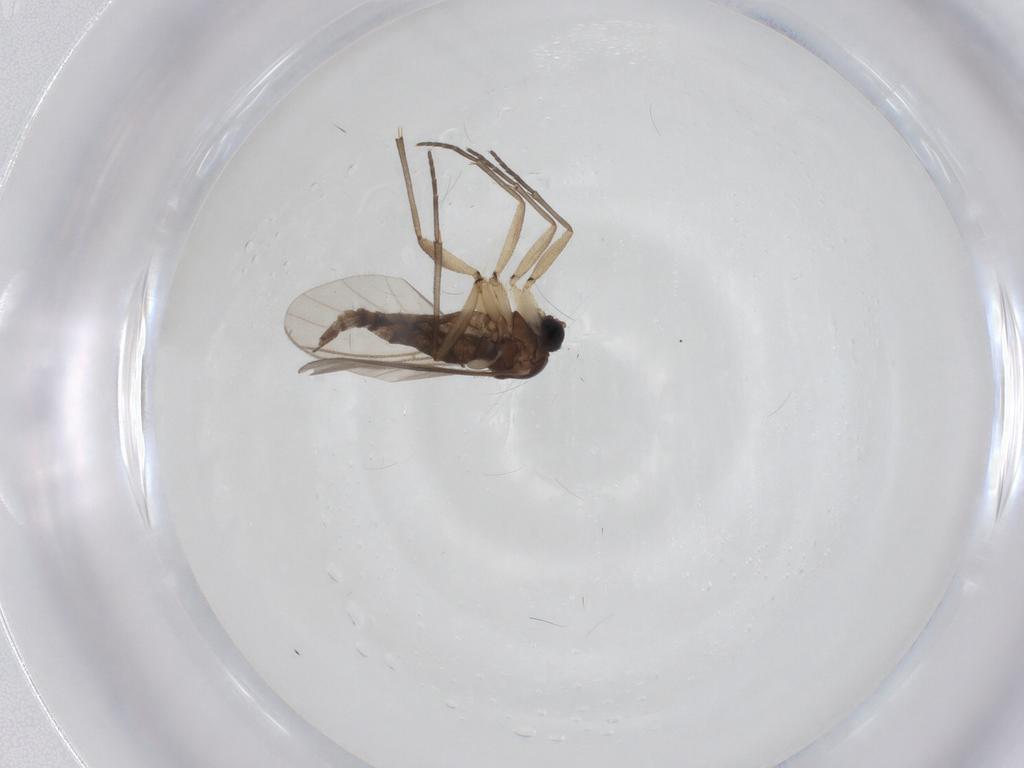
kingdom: Animalia
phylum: Arthropoda
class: Insecta
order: Diptera
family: Sciaridae
